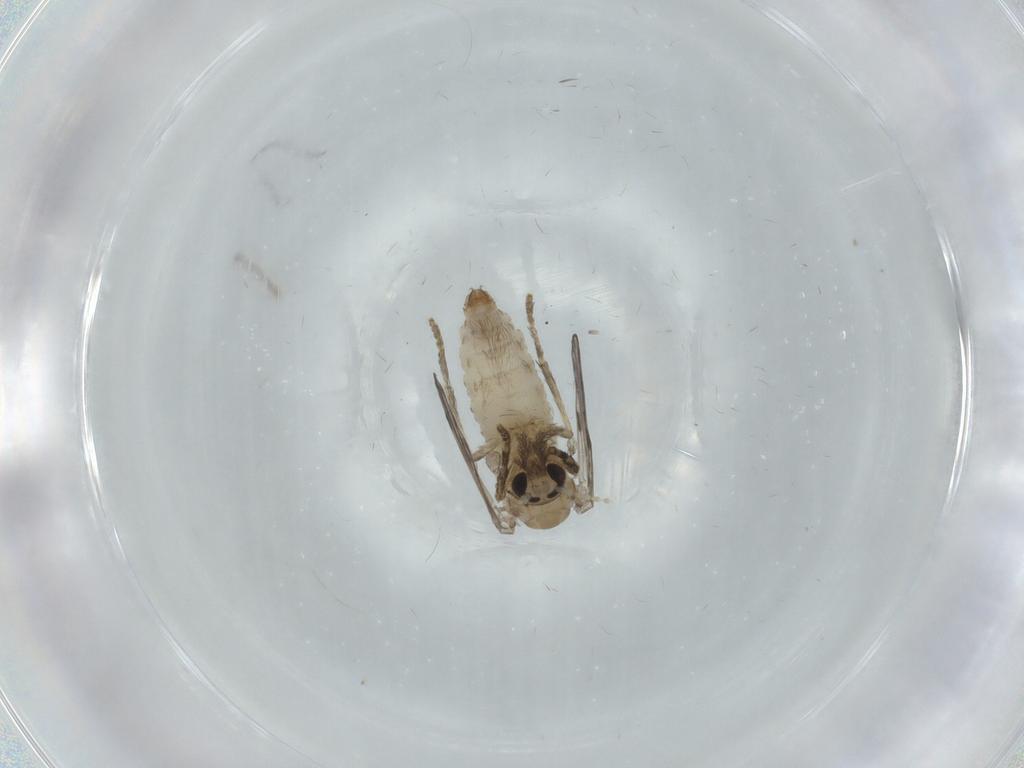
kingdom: Animalia
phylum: Arthropoda
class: Insecta
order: Diptera
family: Psychodidae
